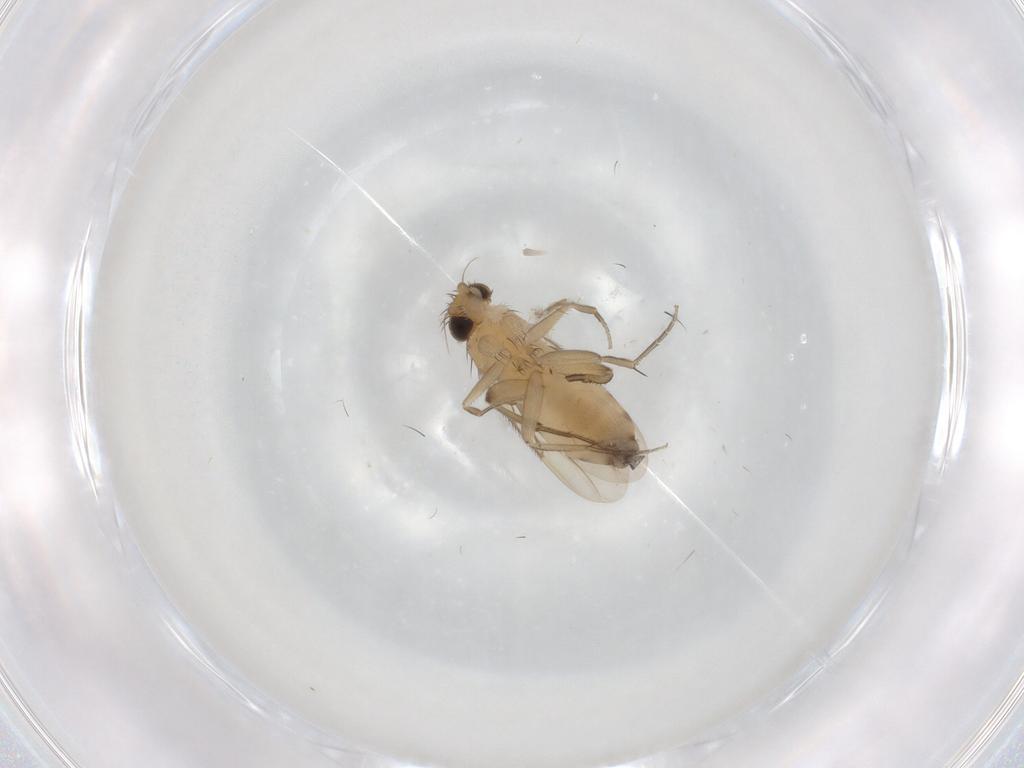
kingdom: Animalia
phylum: Arthropoda
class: Insecta
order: Diptera
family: Phoridae
